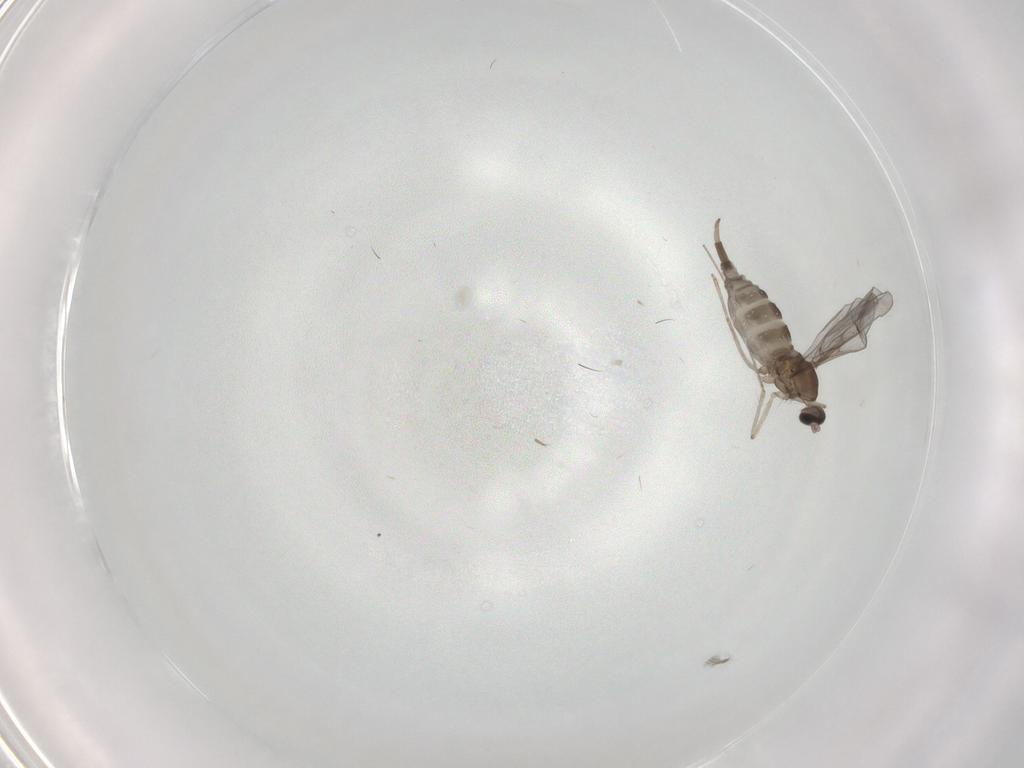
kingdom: Animalia
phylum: Arthropoda
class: Insecta
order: Diptera
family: Cecidomyiidae
